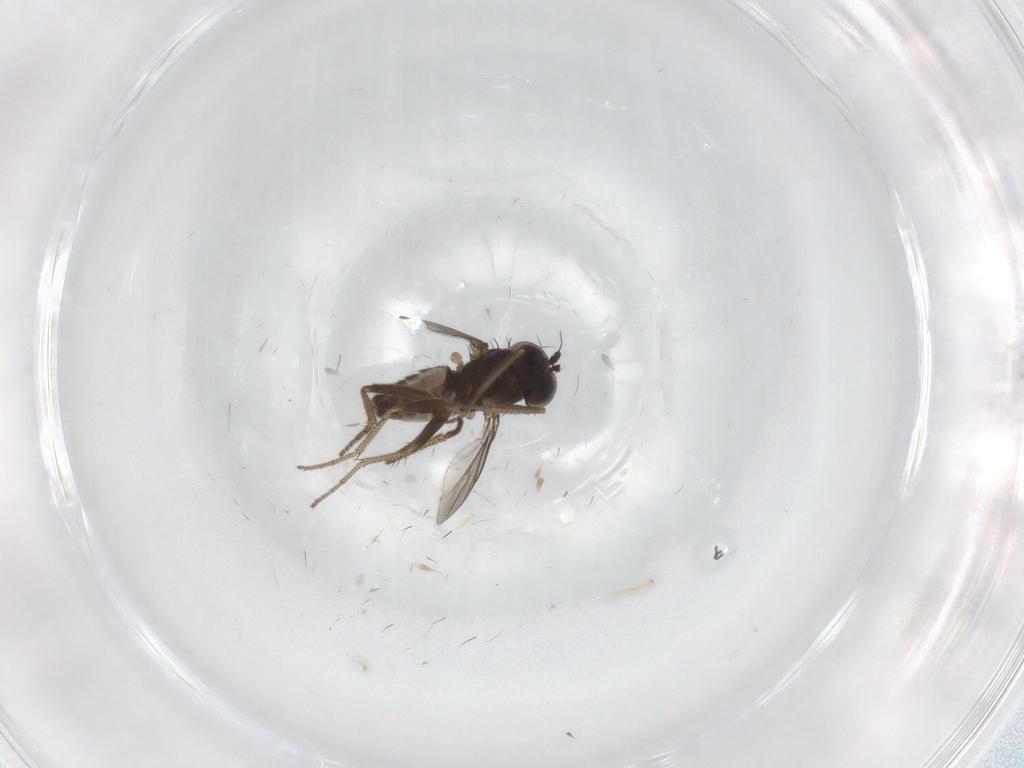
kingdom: Animalia
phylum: Arthropoda
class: Insecta
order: Diptera
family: Dolichopodidae
